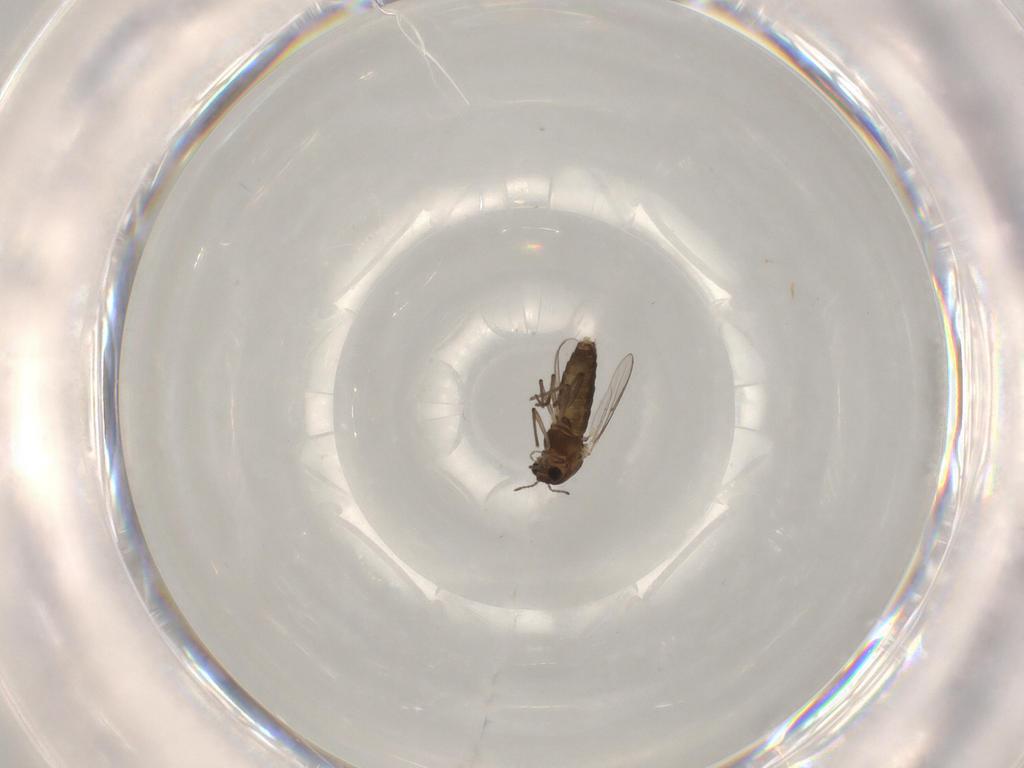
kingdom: Animalia
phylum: Arthropoda
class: Insecta
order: Diptera
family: Chironomidae
